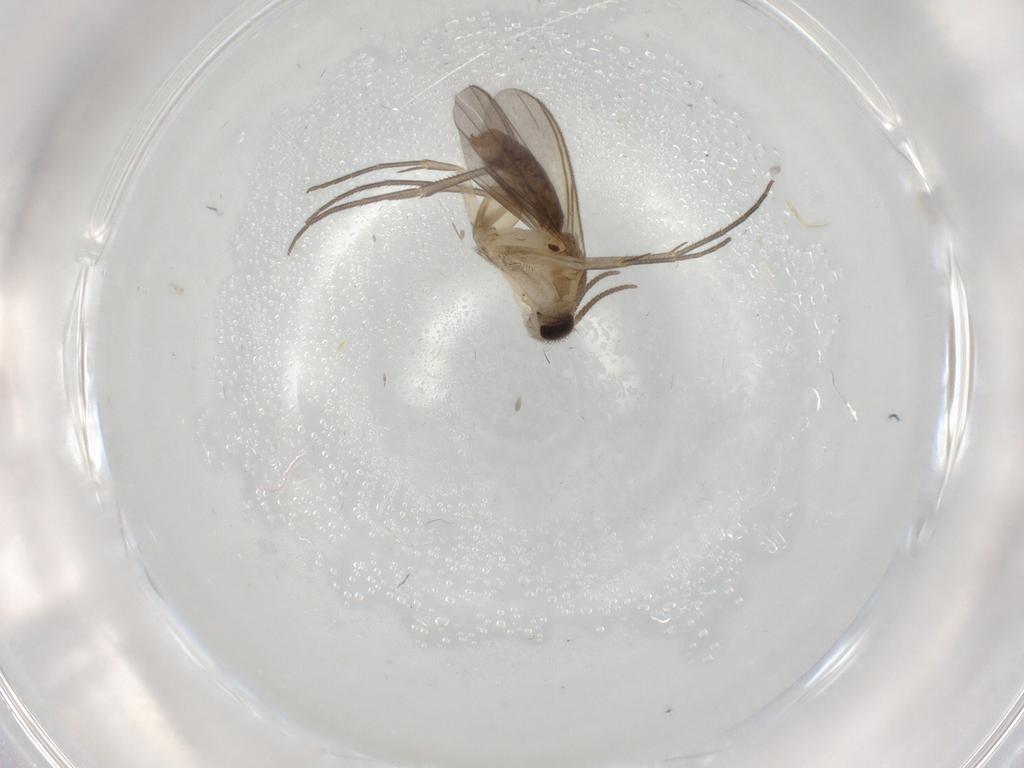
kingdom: Animalia
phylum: Arthropoda
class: Insecta
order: Diptera
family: Mycetophilidae
